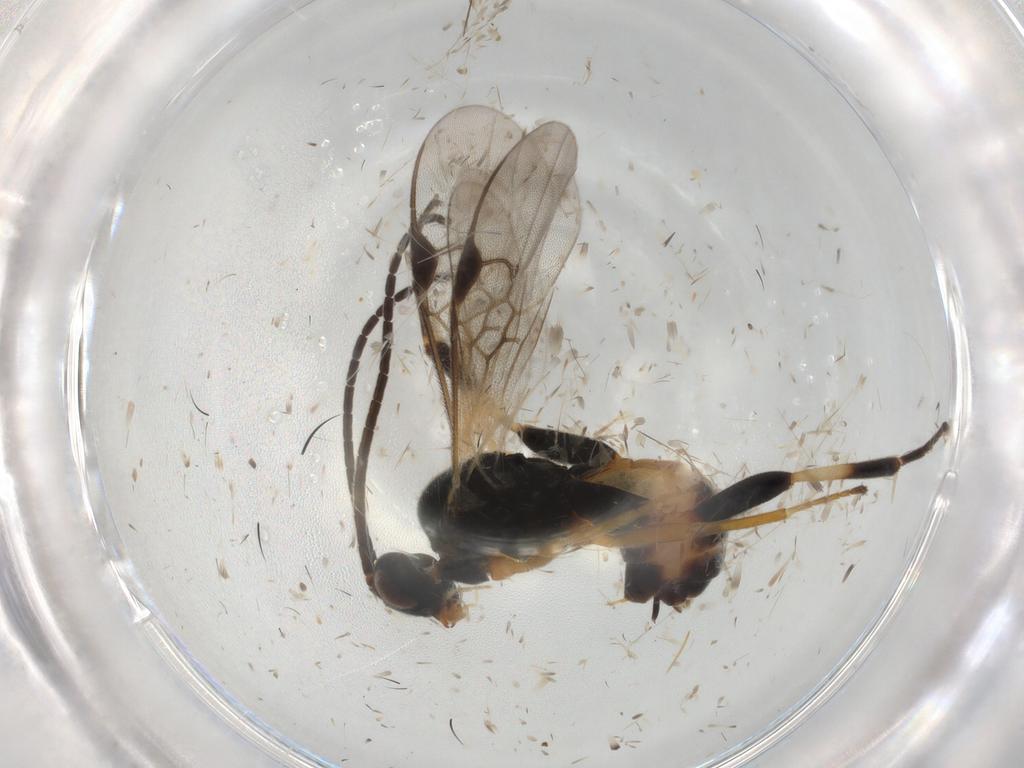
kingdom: Animalia
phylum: Arthropoda
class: Insecta
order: Hymenoptera
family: Braconidae
